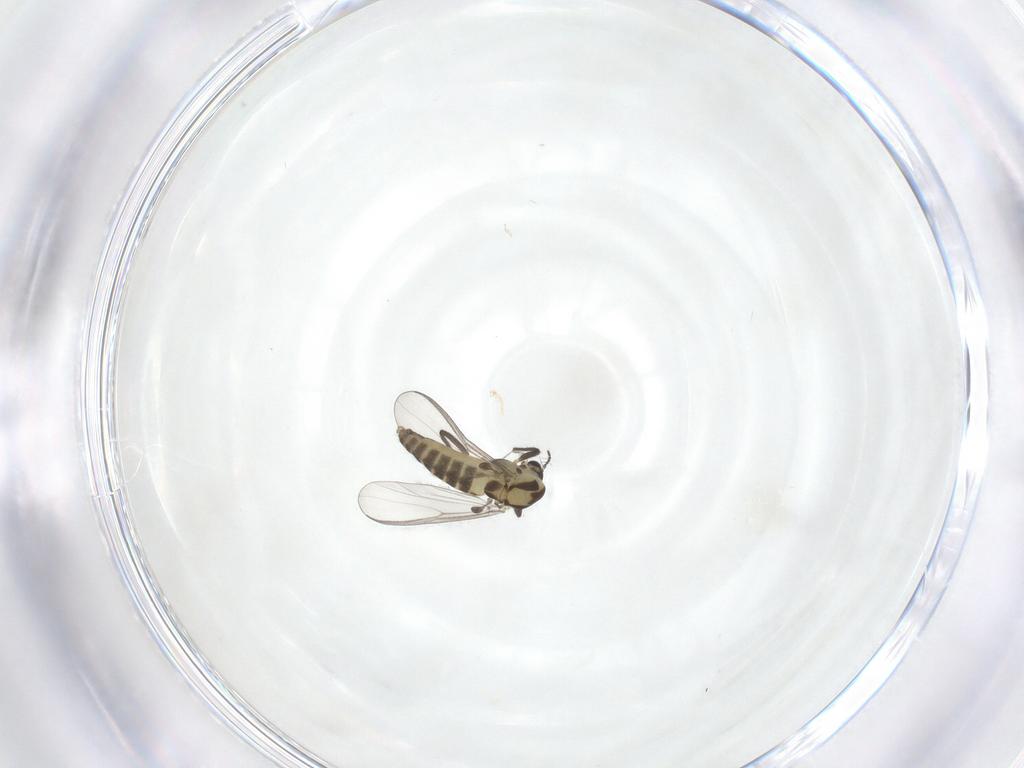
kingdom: Animalia
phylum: Arthropoda
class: Insecta
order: Diptera
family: Chironomidae
